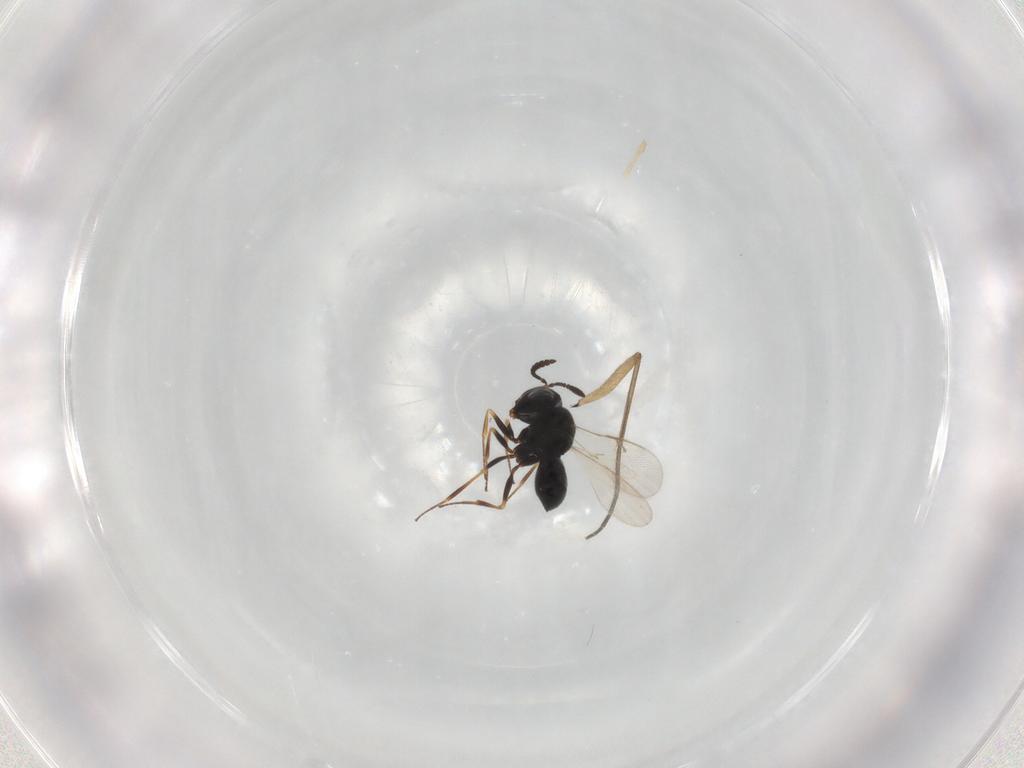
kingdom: Animalia
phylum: Arthropoda
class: Insecta
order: Hymenoptera
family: Scelionidae
